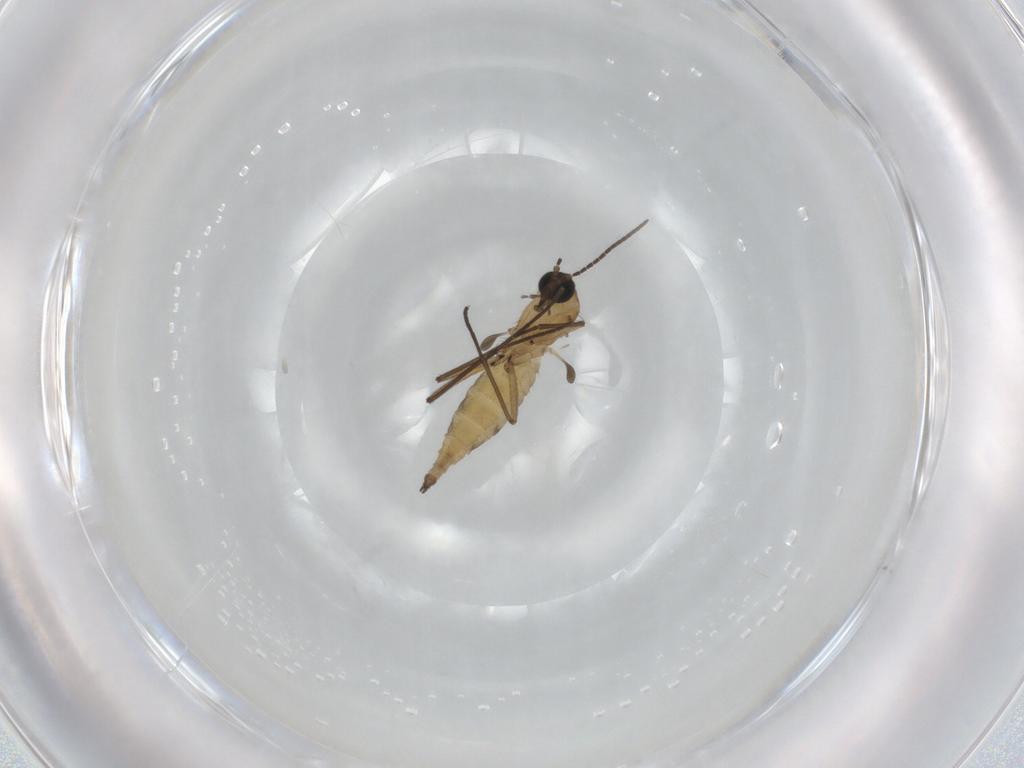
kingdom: Animalia
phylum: Arthropoda
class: Insecta
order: Diptera
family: Sciaridae
